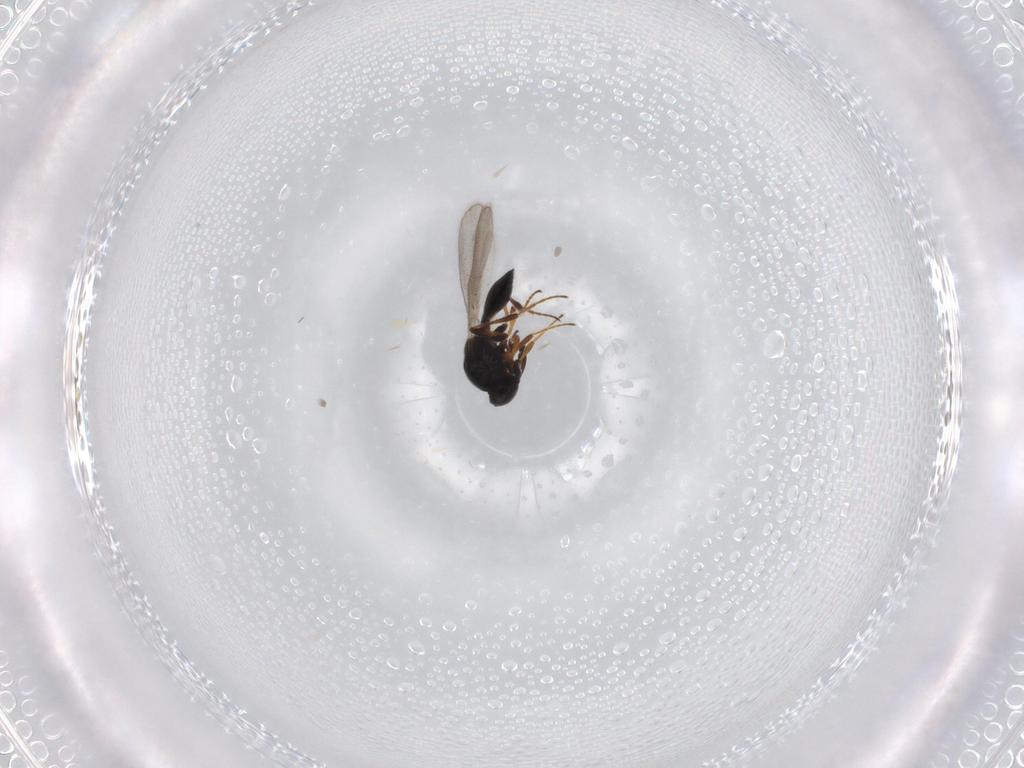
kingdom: Animalia
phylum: Arthropoda
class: Insecta
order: Hymenoptera
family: Platygastridae
